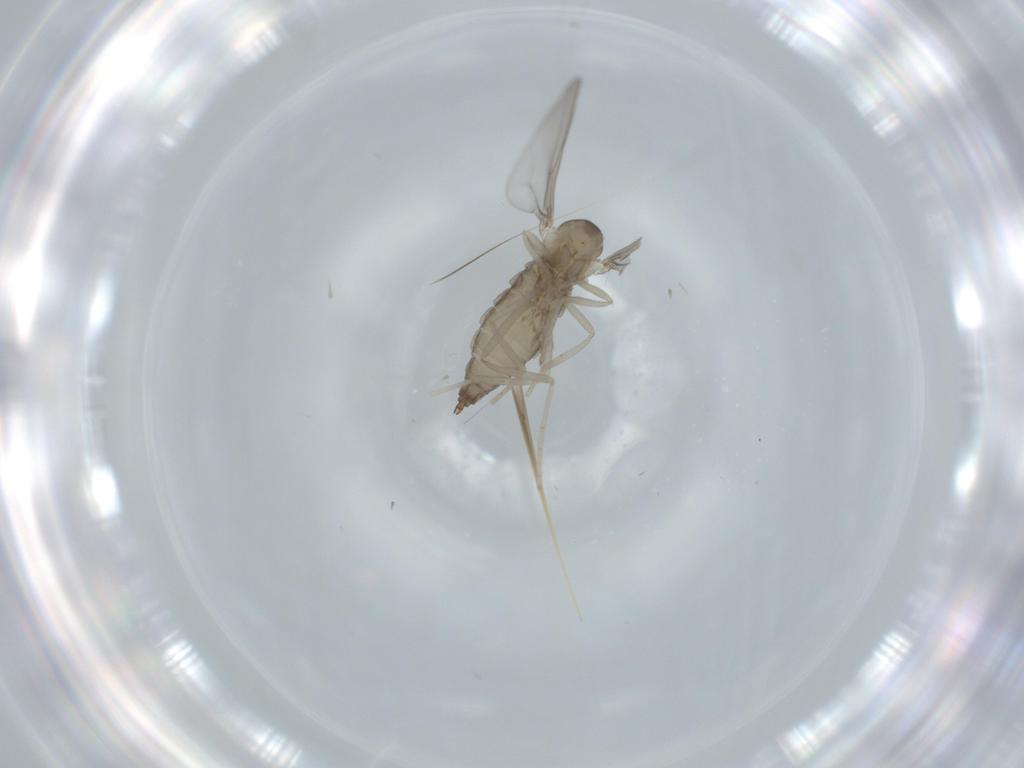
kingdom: Animalia
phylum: Arthropoda
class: Insecta
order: Diptera
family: Cecidomyiidae
